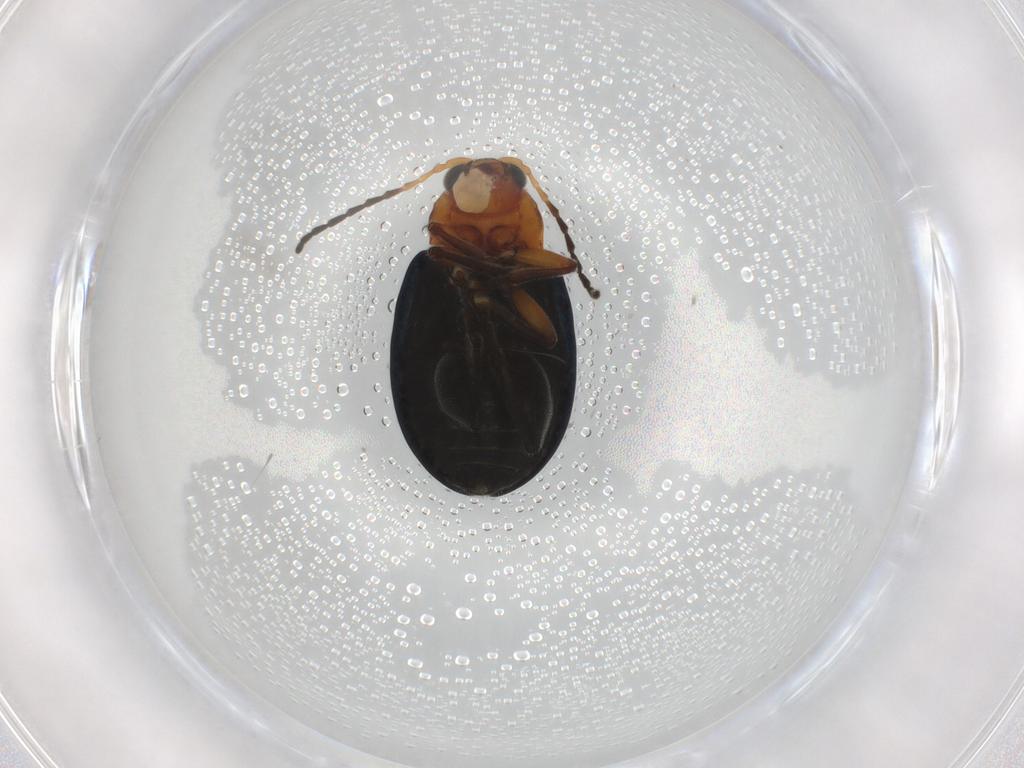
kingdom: Animalia
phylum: Arthropoda
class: Insecta
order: Coleoptera
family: Chrysomelidae
